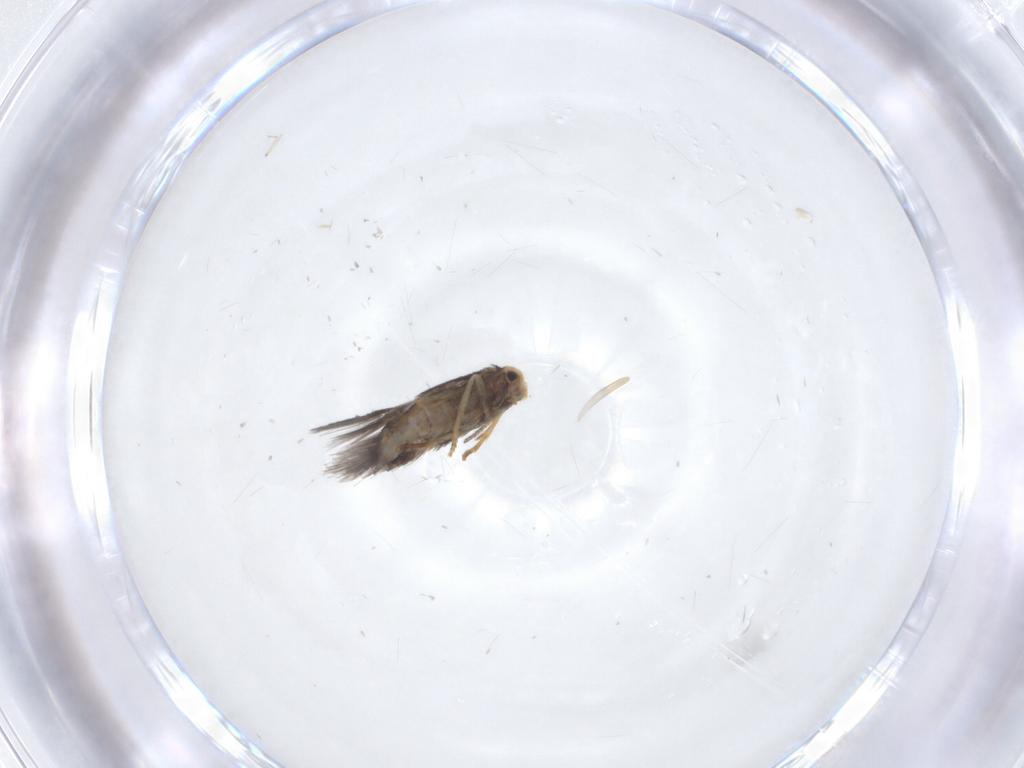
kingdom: Animalia
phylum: Arthropoda
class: Insecta
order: Lepidoptera
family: Nepticulidae
